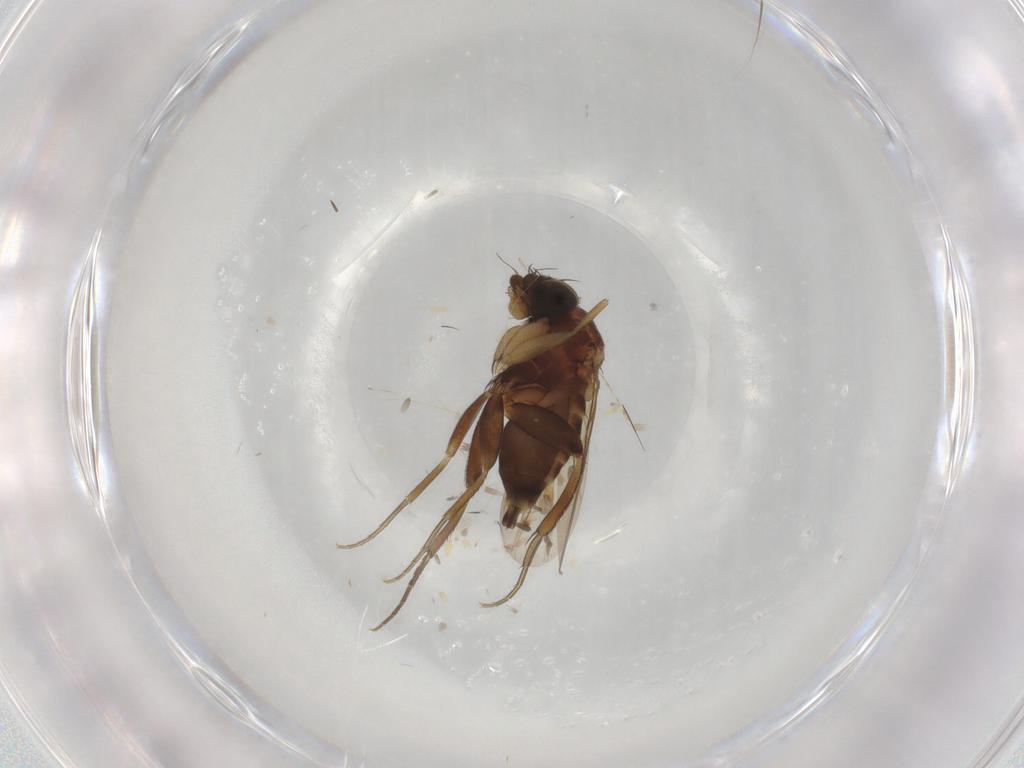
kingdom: Animalia
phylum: Arthropoda
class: Insecta
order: Diptera
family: Phoridae
